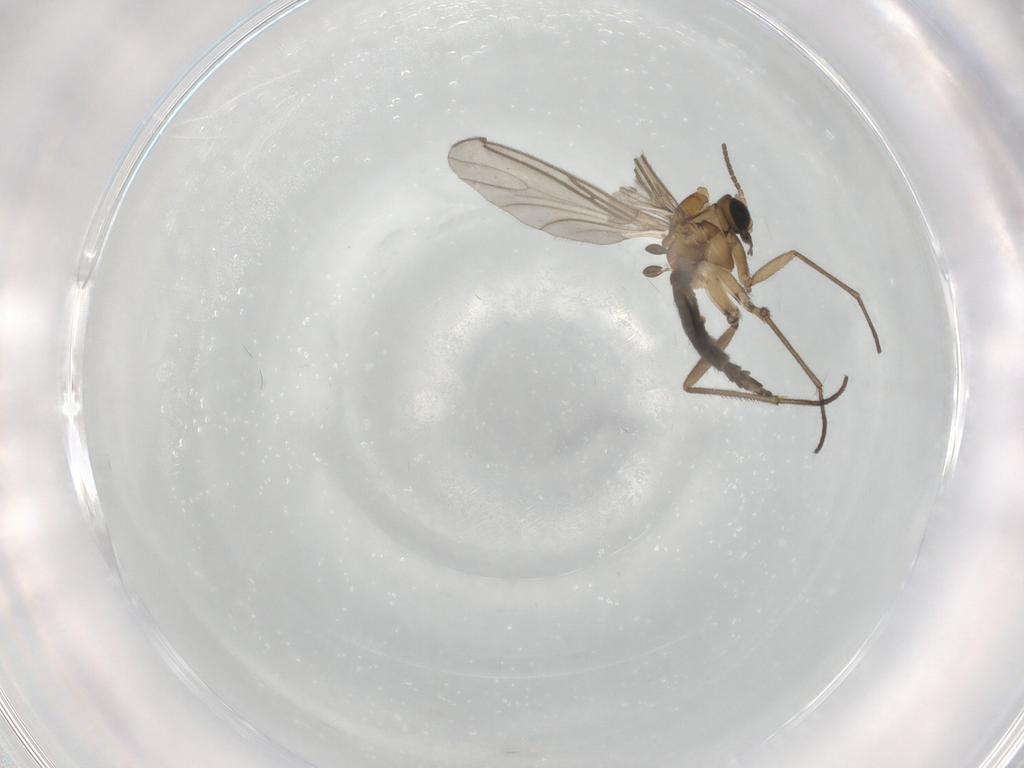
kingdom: Animalia
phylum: Arthropoda
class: Insecta
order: Diptera
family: Sciaridae
